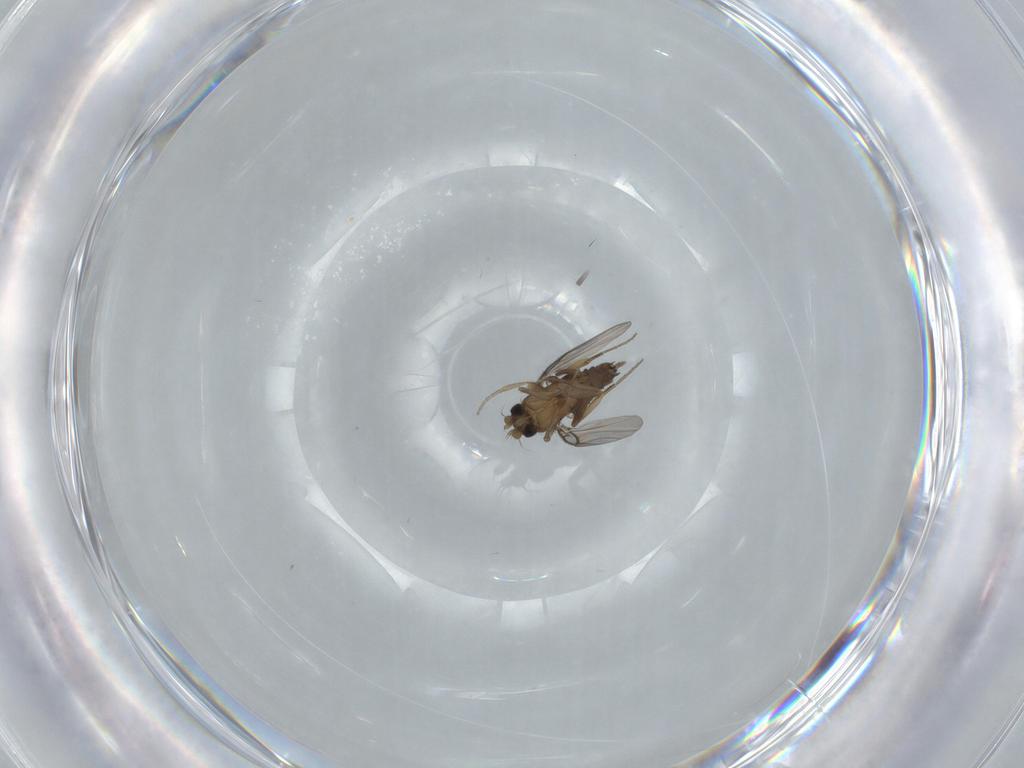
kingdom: Animalia
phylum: Arthropoda
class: Insecta
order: Diptera
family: Phoridae
